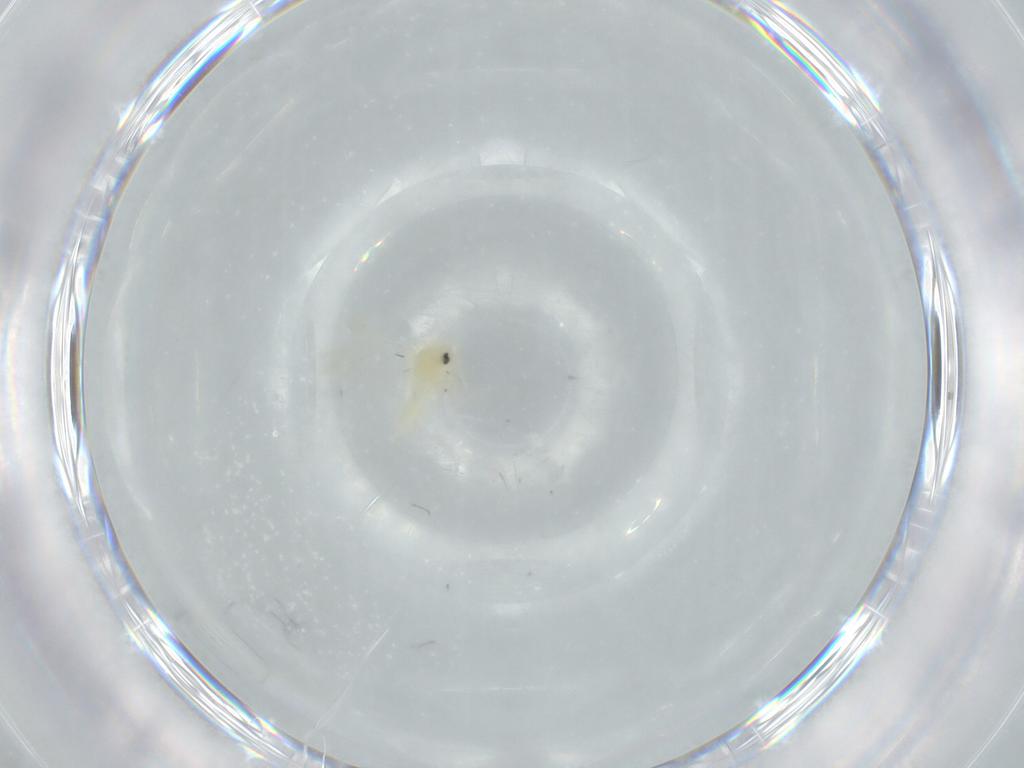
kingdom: Animalia
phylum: Arthropoda
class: Insecta
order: Hemiptera
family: Aleyrodidae
